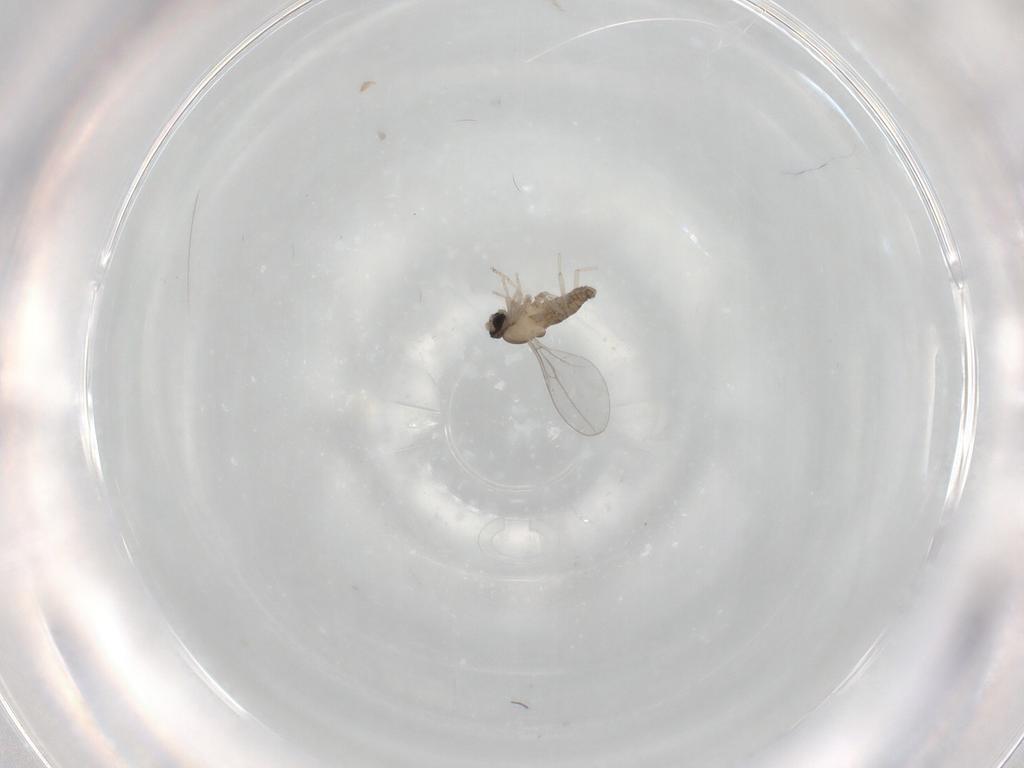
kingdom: Animalia
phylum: Arthropoda
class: Insecta
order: Diptera
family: Cecidomyiidae
